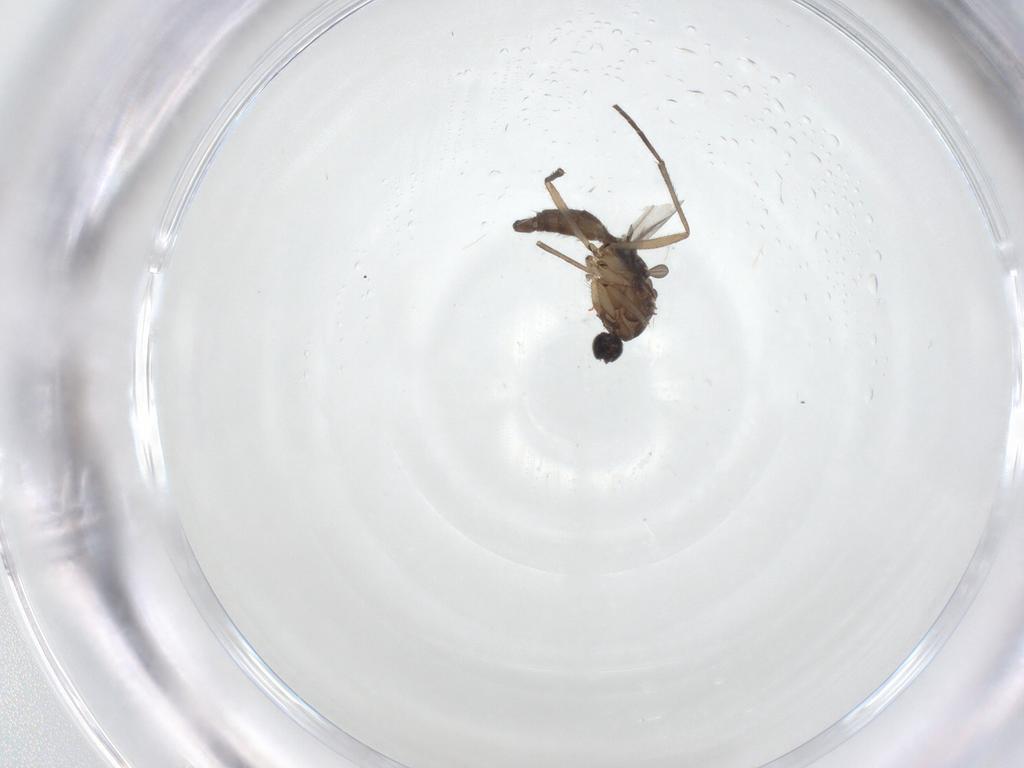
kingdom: Animalia
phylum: Arthropoda
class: Insecta
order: Diptera
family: Sciaridae
